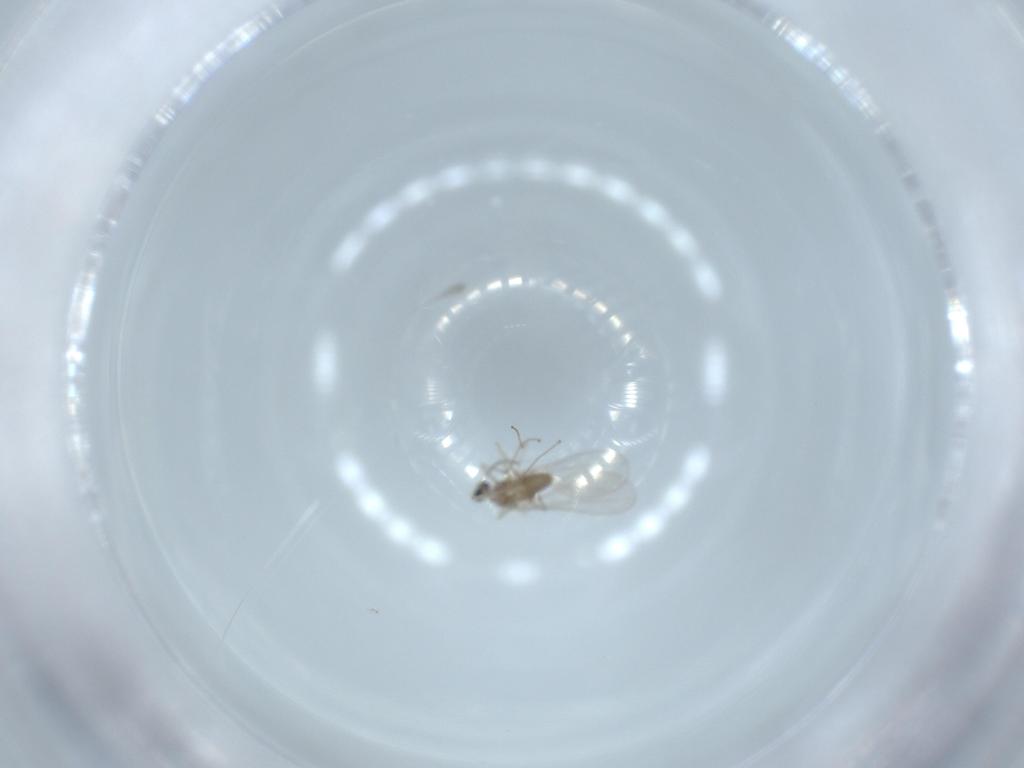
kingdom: Animalia
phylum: Arthropoda
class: Insecta
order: Diptera
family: Cecidomyiidae
